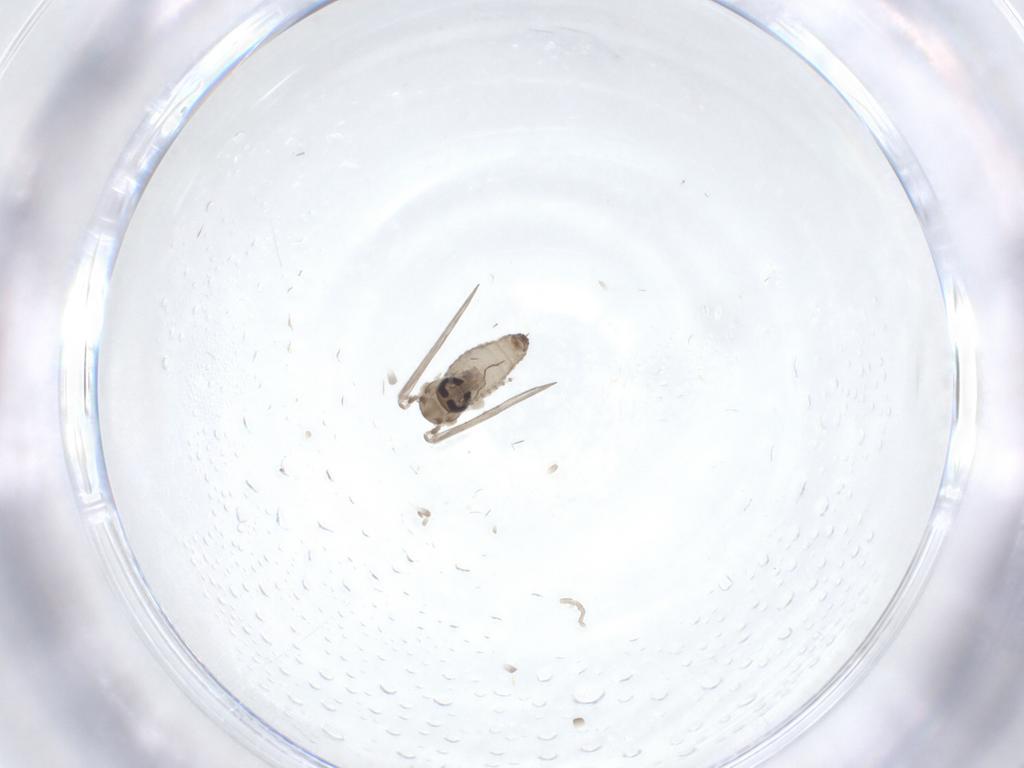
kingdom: Animalia
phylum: Arthropoda
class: Insecta
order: Diptera
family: Psychodidae
